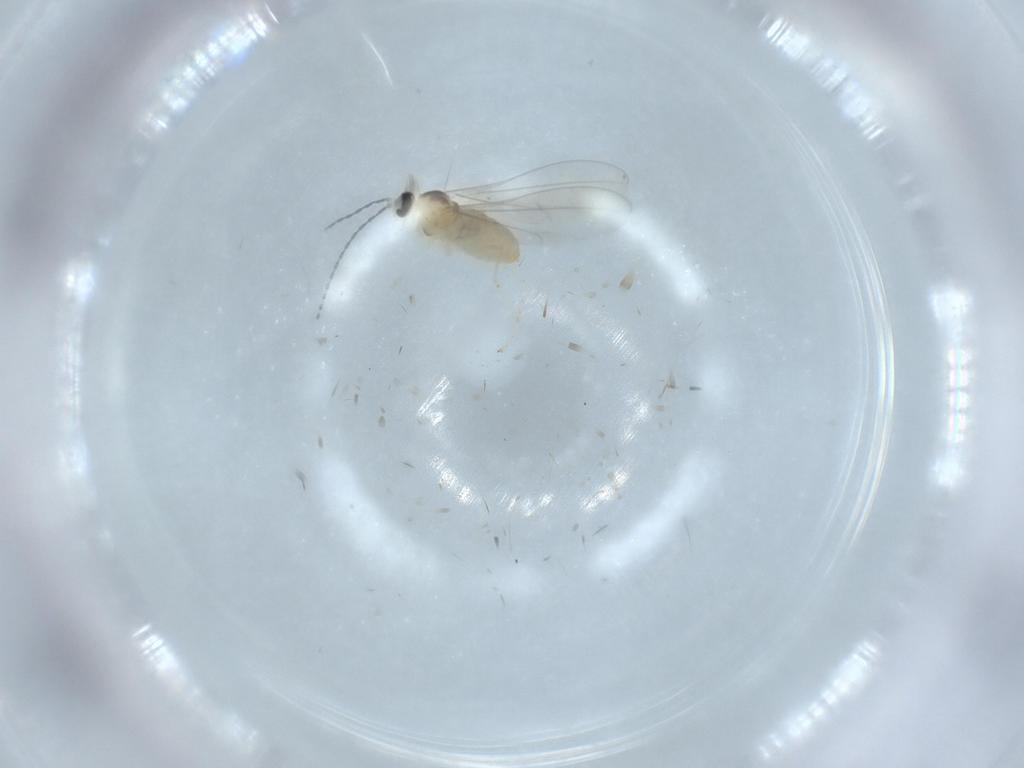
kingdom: Animalia
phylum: Arthropoda
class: Insecta
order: Diptera
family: Cecidomyiidae
